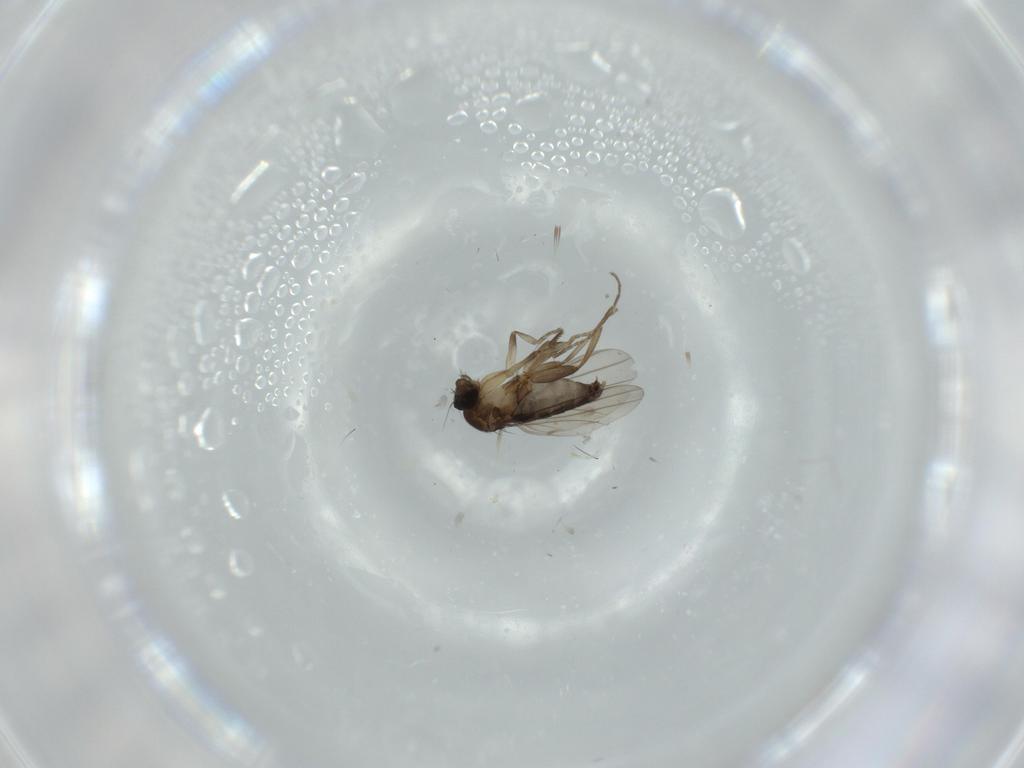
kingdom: Animalia
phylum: Arthropoda
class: Insecta
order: Diptera
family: Phoridae
